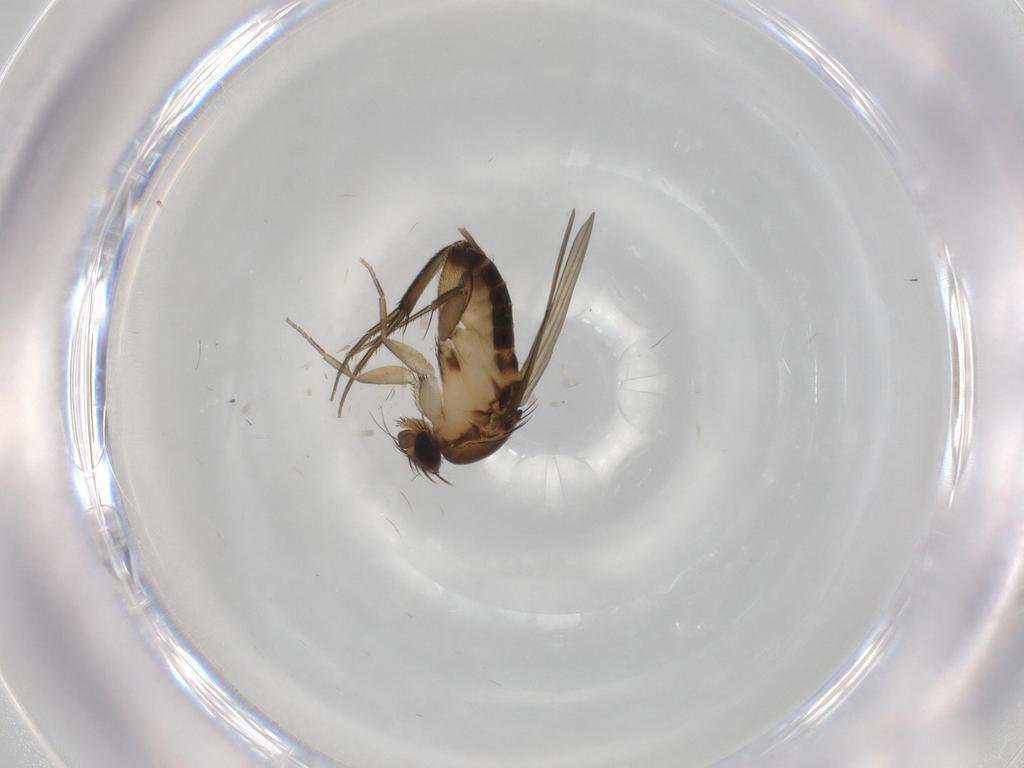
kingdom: Animalia
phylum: Arthropoda
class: Insecta
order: Diptera
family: Phoridae
